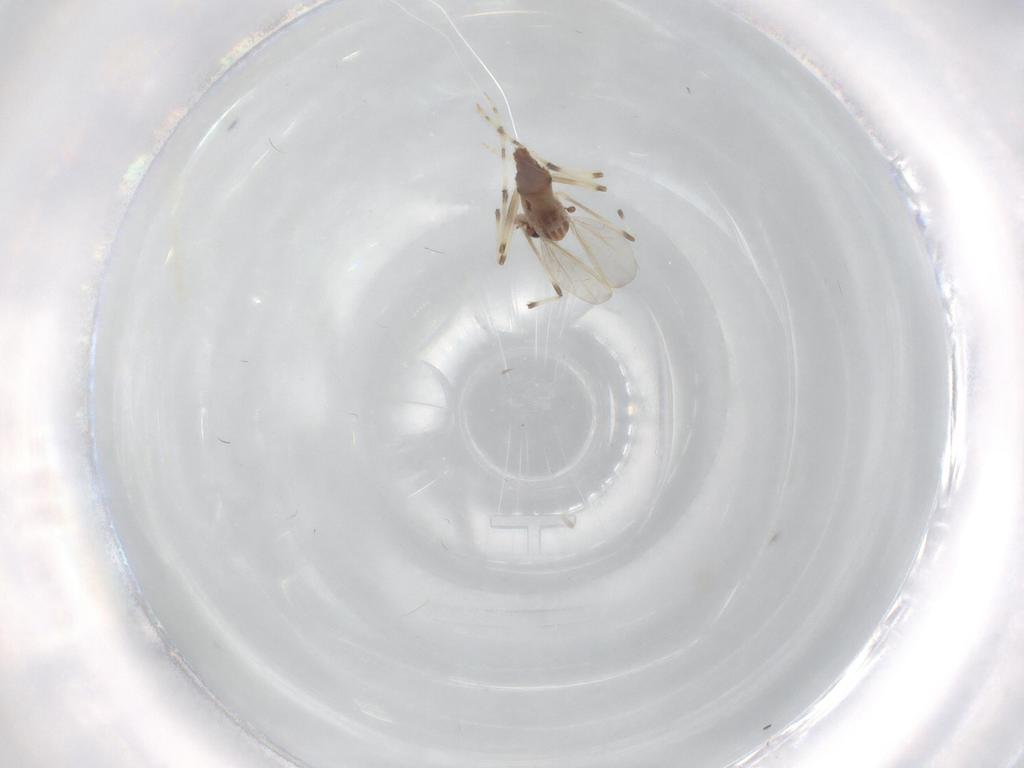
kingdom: Animalia
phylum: Arthropoda
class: Insecta
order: Diptera
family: Chironomidae
